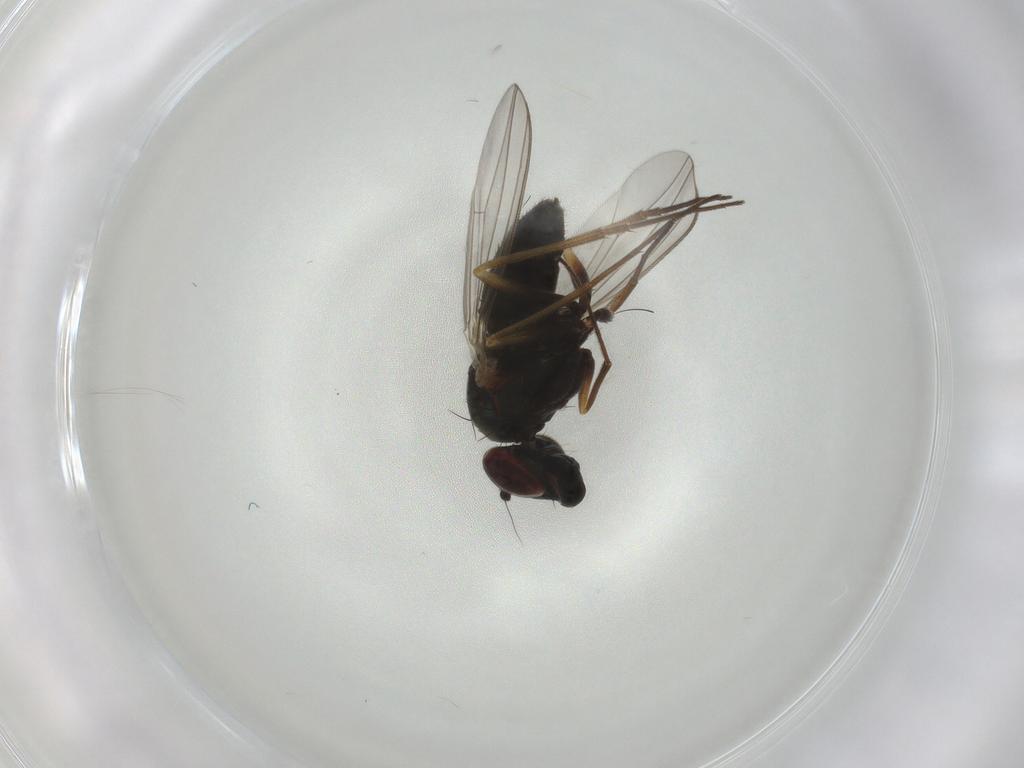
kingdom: Animalia
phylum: Arthropoda
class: Insecta
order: Diptera
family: Dolichopodidae
